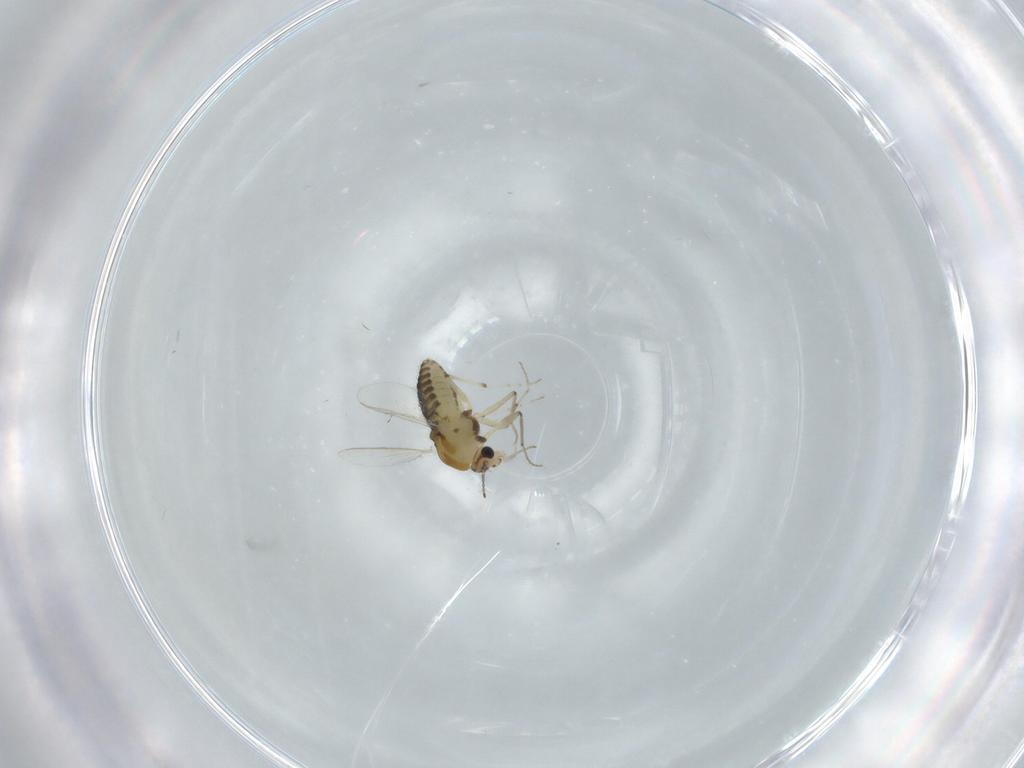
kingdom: Animalia
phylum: Arthropoda
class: Insecta
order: Diptera
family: Chironomidae
